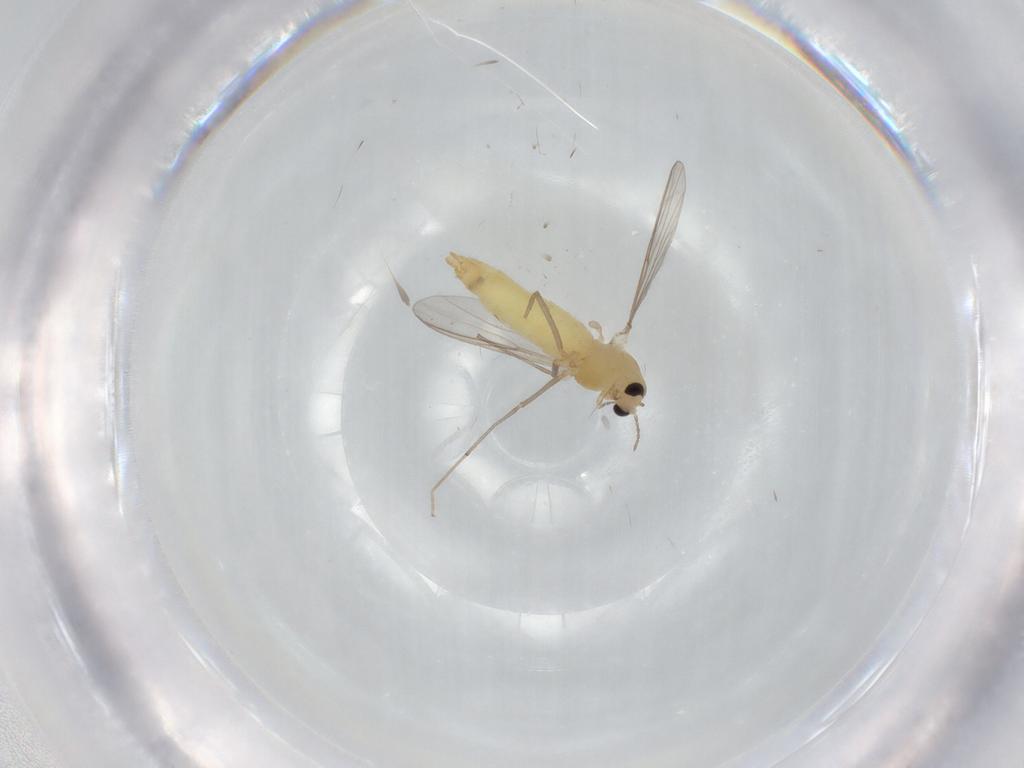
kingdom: Animalia
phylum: Arthropoda
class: Insecta
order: Diptera
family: Chironomidae
